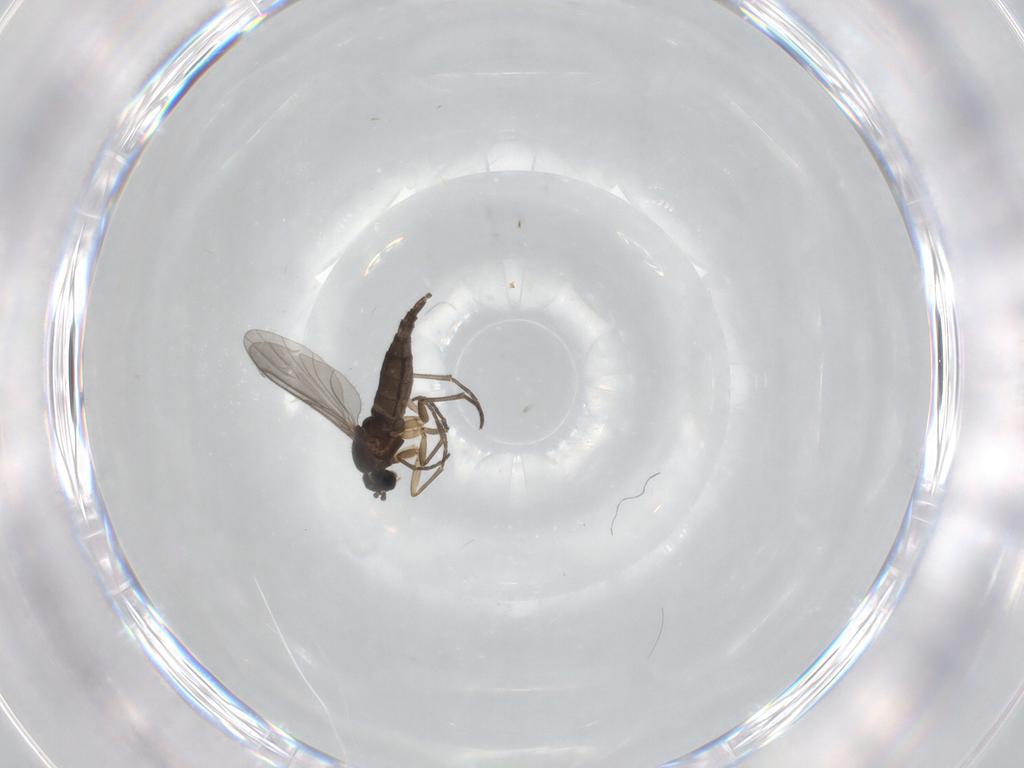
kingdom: Animalia
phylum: Arthropoda
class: Insecta
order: Diptera
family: Ceratopogonidae
